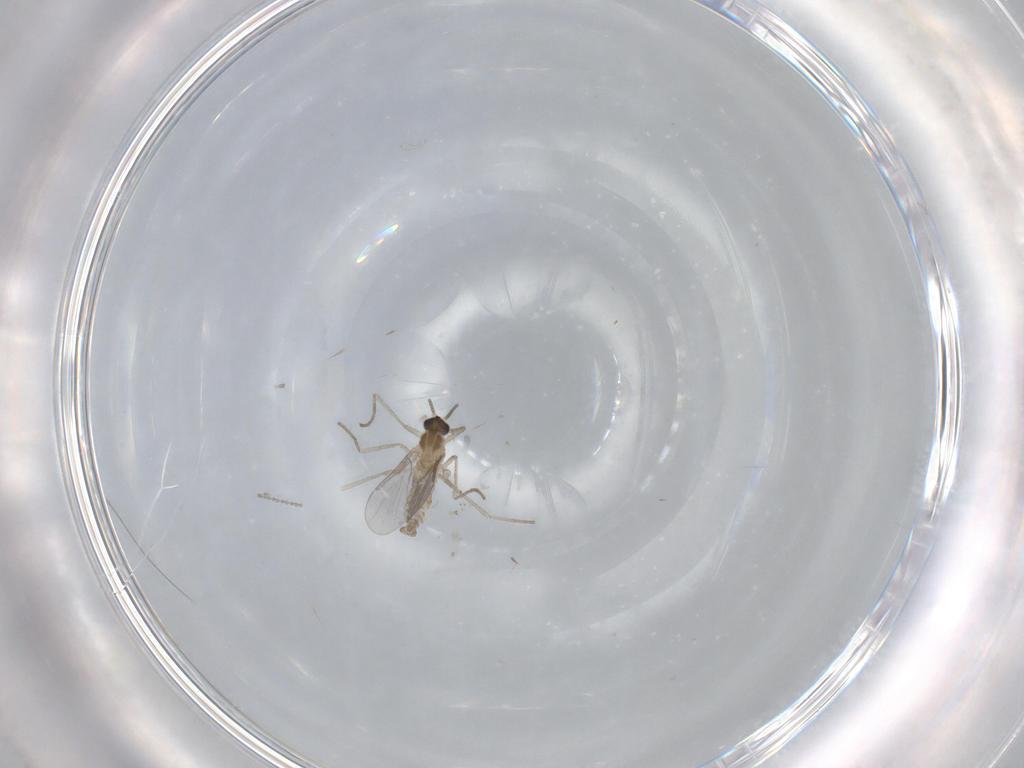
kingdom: Animalia
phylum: Arthropoda
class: Insecta
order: Diptera
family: Cecidomyiidae
